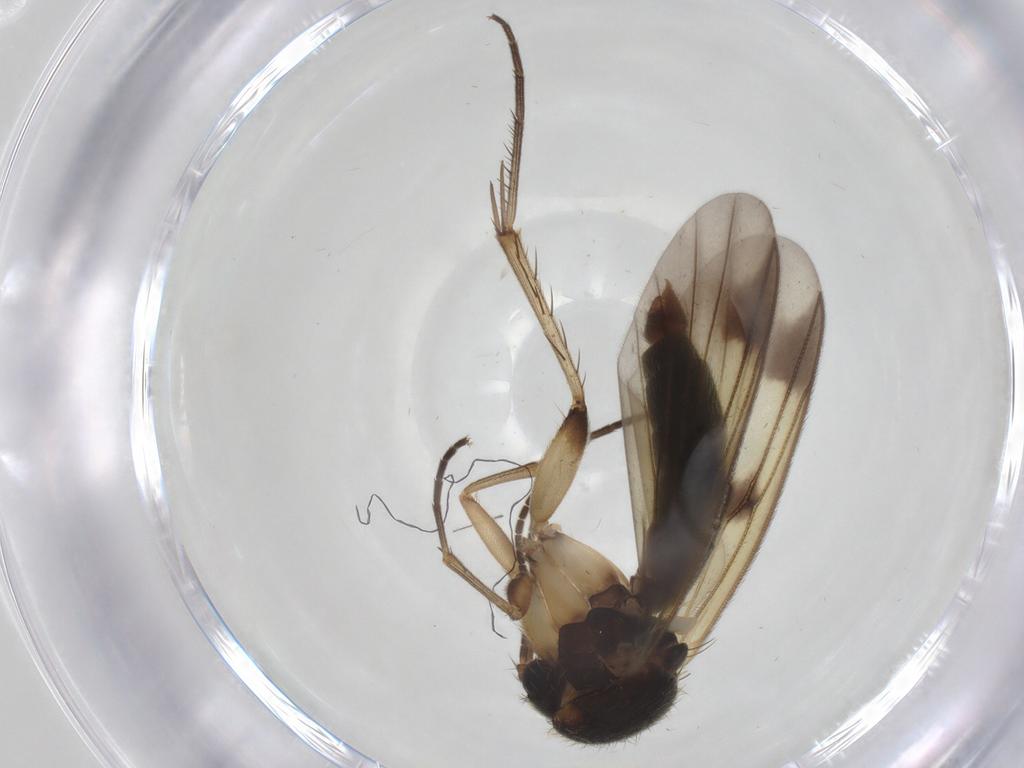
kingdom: Animalia
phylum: Arthropoda
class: Insecta
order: Diptera
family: Mycetophilidae
